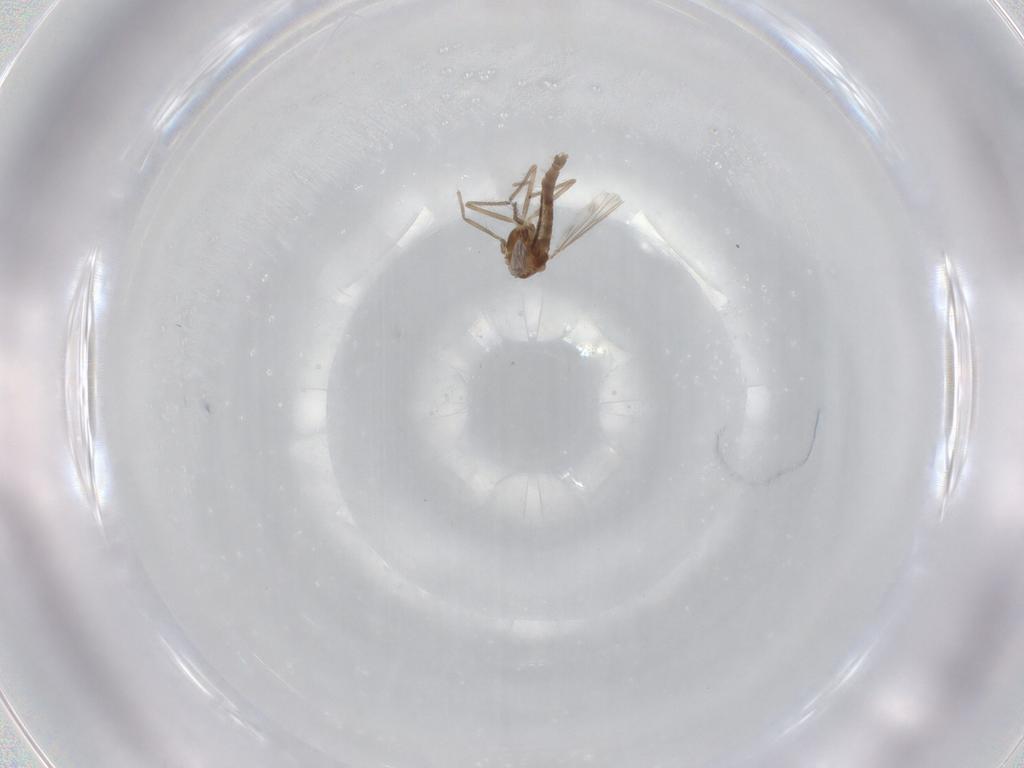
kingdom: Animalia
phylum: Arthropoda
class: Insecta
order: Diptera
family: Chironomidae
